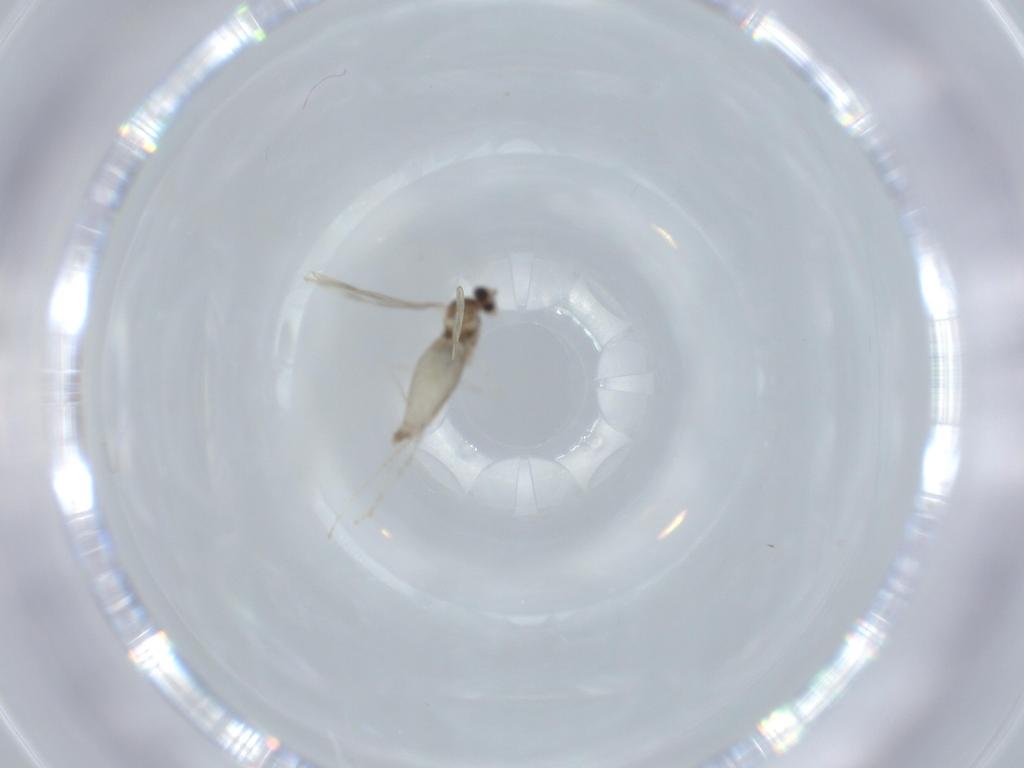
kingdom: Animalia
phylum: Arthropoda
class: Insecta
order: Diptera
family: Cecidomyiidae
